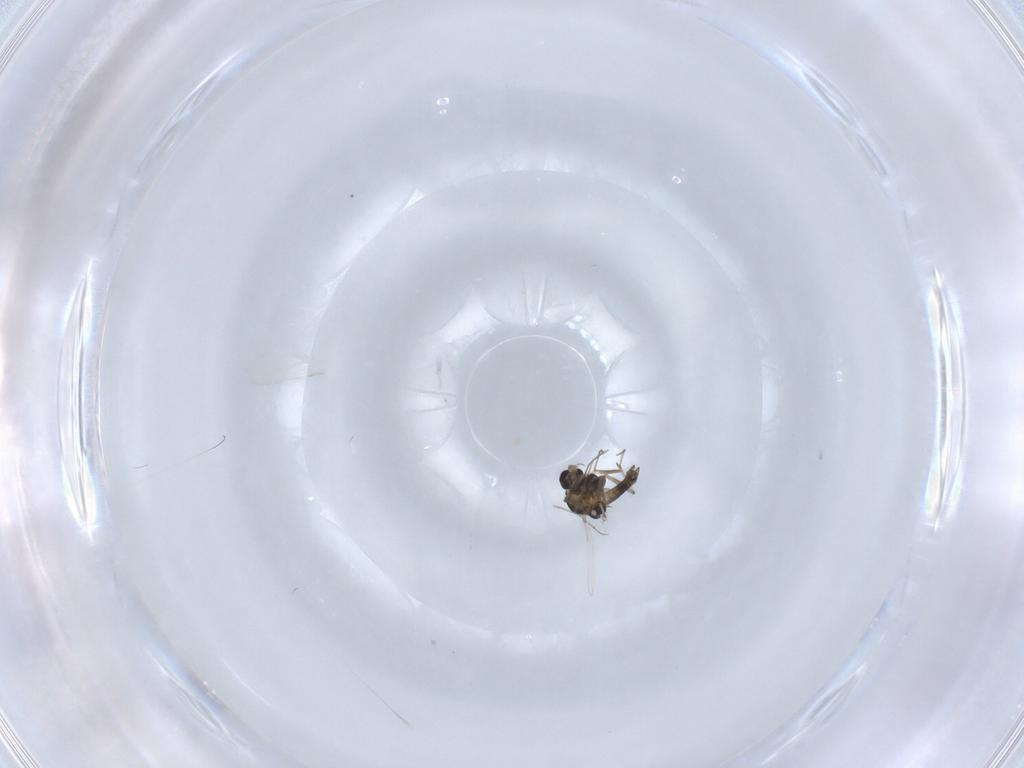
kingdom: Animalia
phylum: Arthropoda
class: Insecta
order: Diptera
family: Chironomidae
